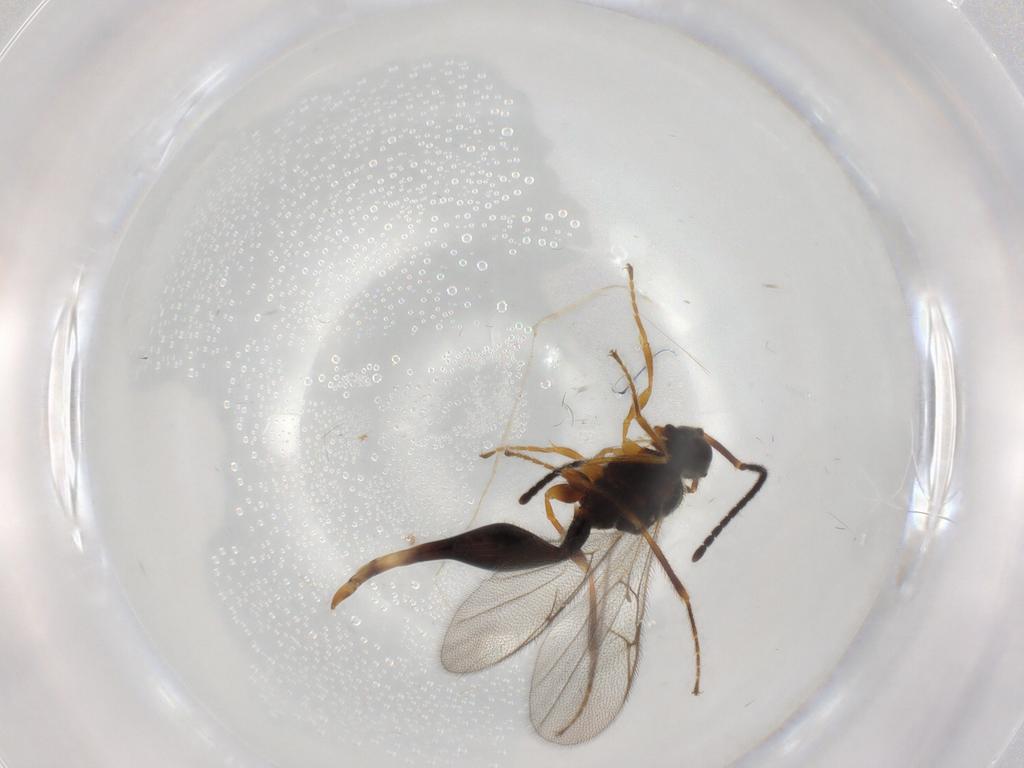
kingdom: Animalia
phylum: Arthropoda
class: Insecta
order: Hymenoptera
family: Diapriidae
